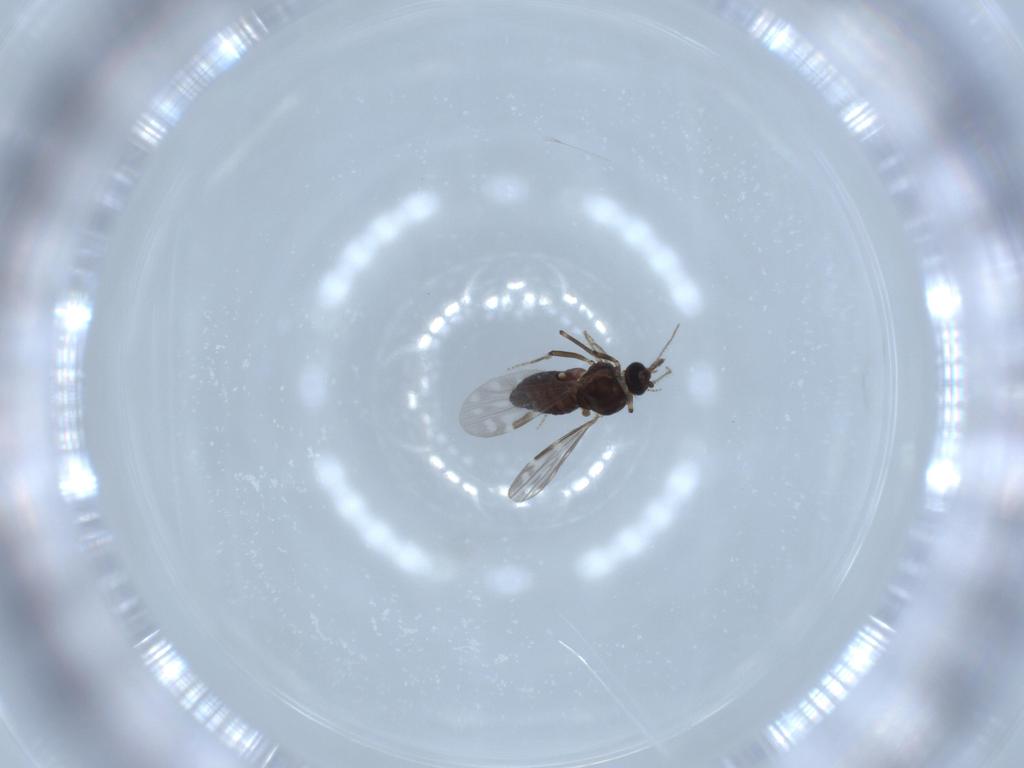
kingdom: Animalia
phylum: Arthropoda
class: Insecta
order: Diptera
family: Ceratopogonidae
